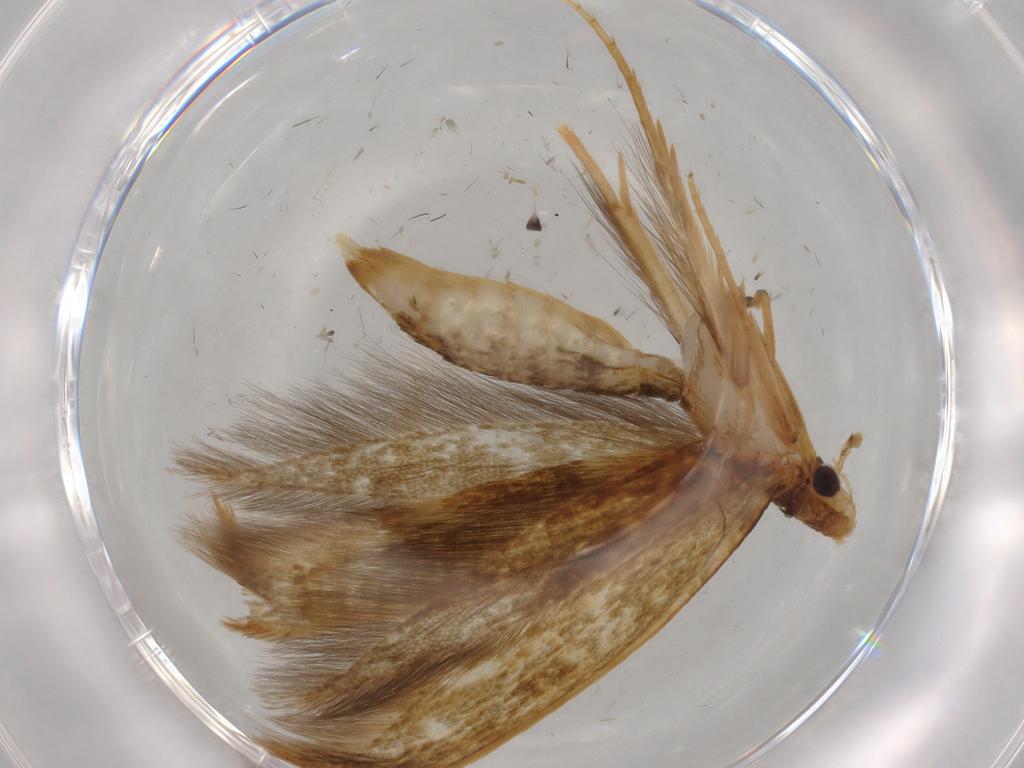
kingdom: Animalia
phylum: Arthropoda
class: Insecta
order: Lepidoptera
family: Tineidae
